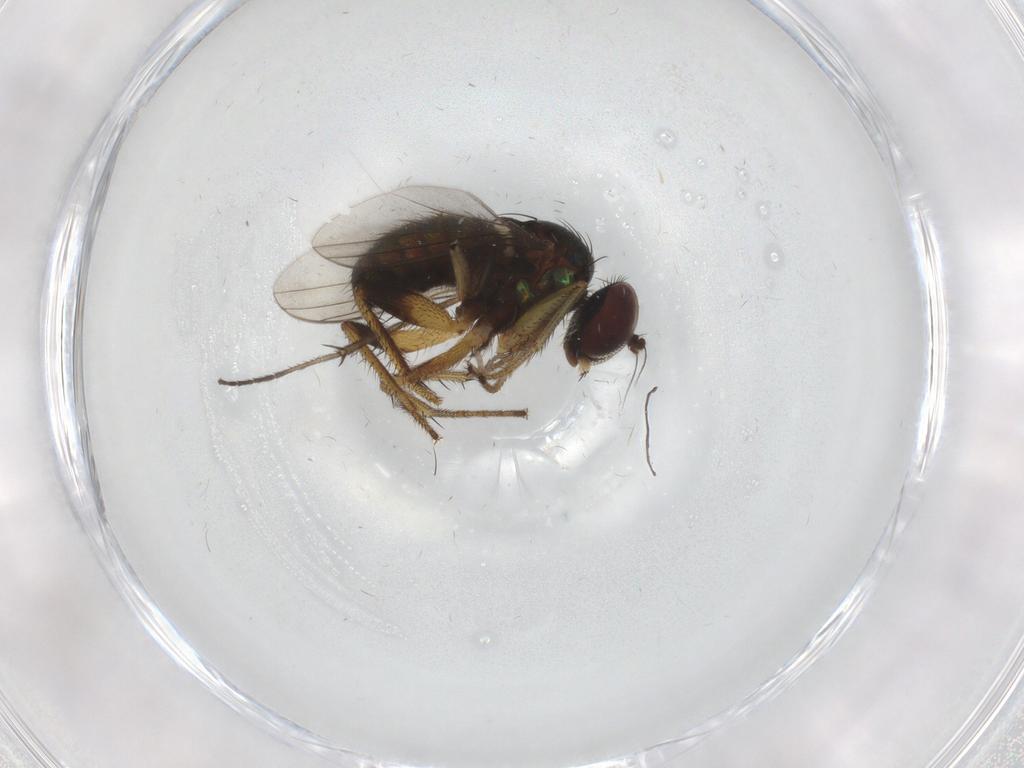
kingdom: Animalia
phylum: Arthropoda
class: Insecta
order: Diptera
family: Dolichopodidae
